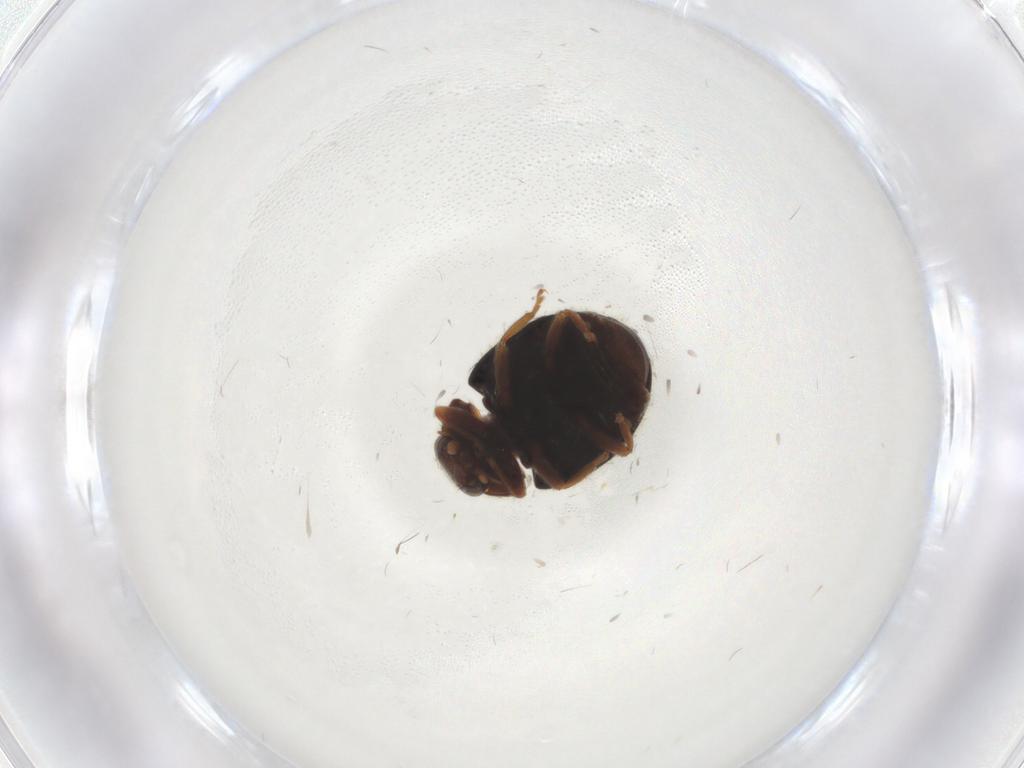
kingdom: Animalia
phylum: Arthropoda
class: Insecta
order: Coleoptera
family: Coccinellidae
